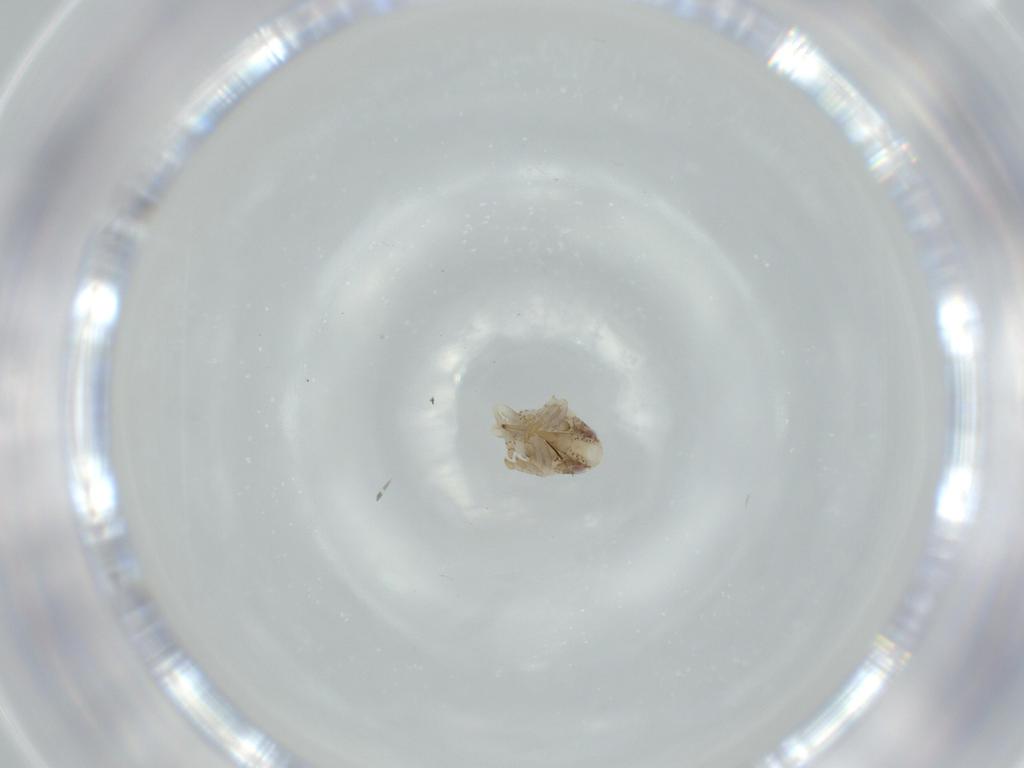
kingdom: Animalia
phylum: Arthropoda
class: Insecta
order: Hemiptera
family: Acanaloniidae
